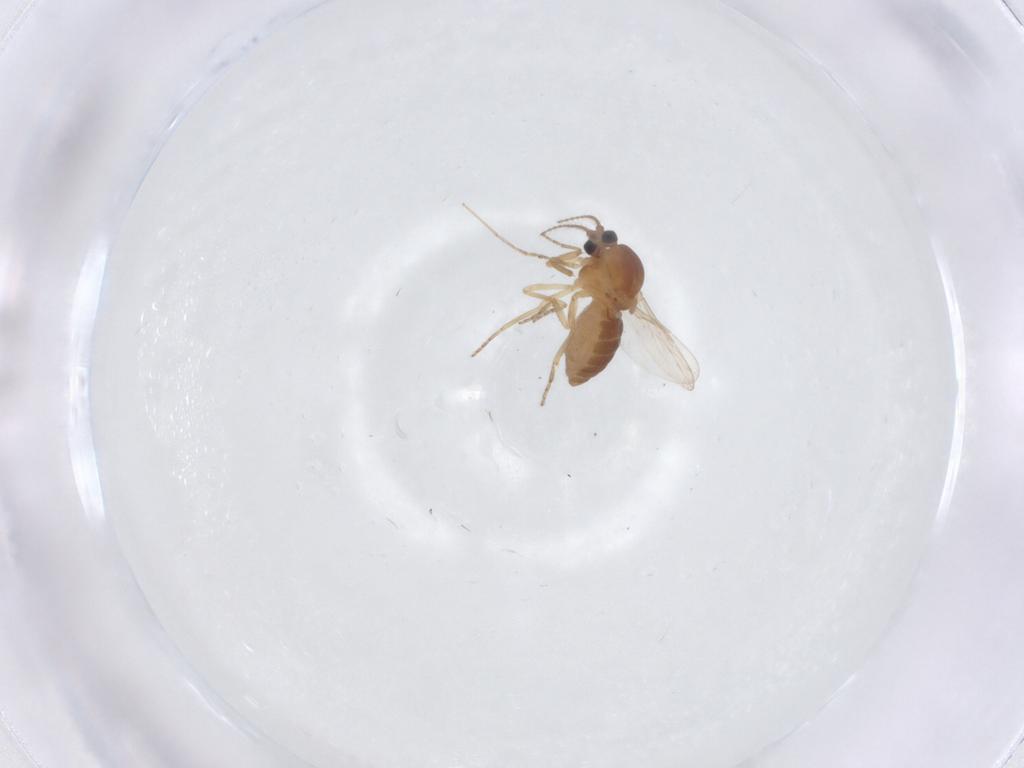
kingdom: Animalia
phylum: Arthropoda
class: Insecta
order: Diptera
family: Ceratopogonidae
